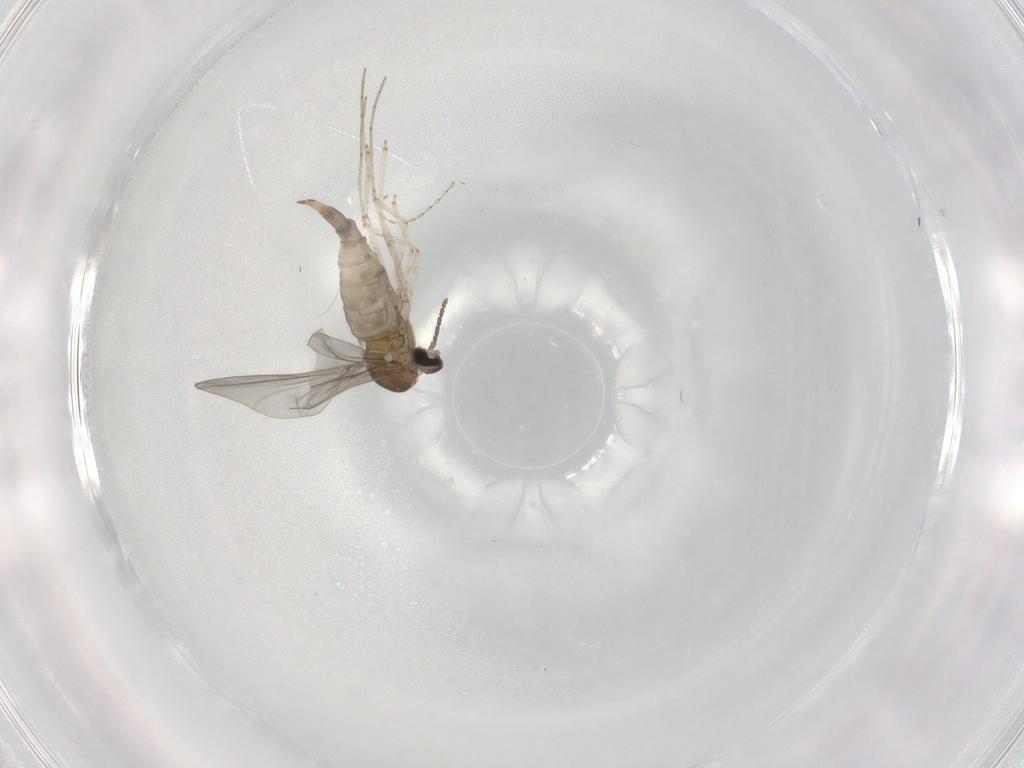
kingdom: Animalia
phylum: Arthropoda
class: Insecta
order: Diptera
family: Cecidomyiidae
